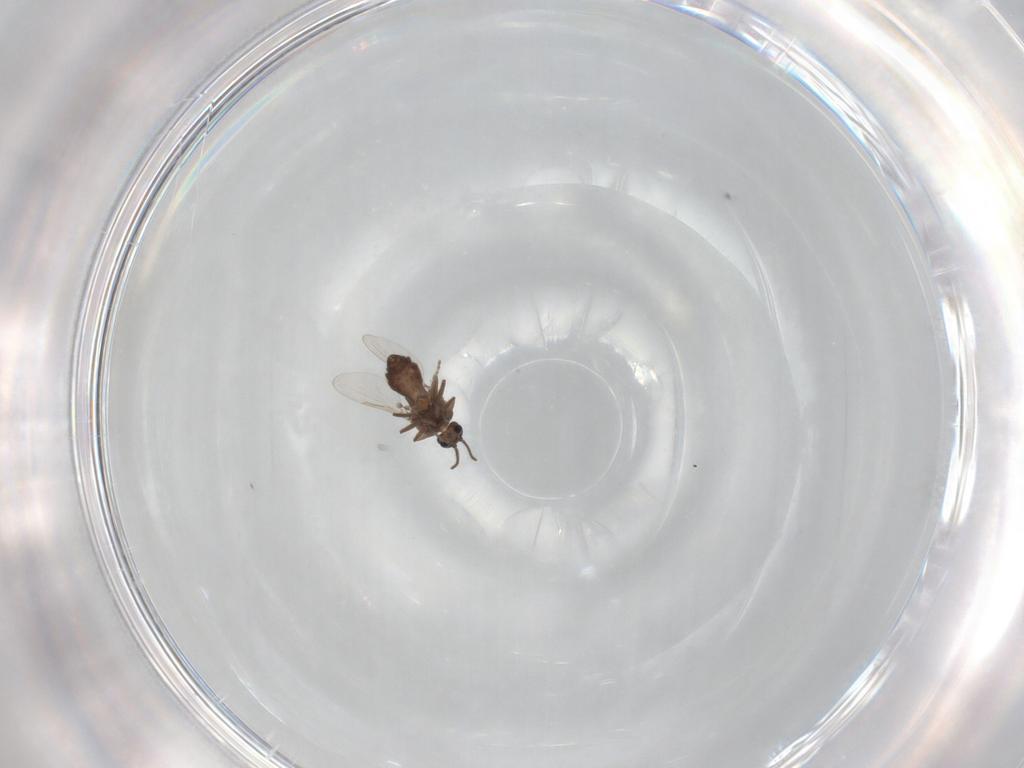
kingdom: Animalia
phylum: Arthropoda
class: Insecta
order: Diptera
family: Ceratopogonidae
